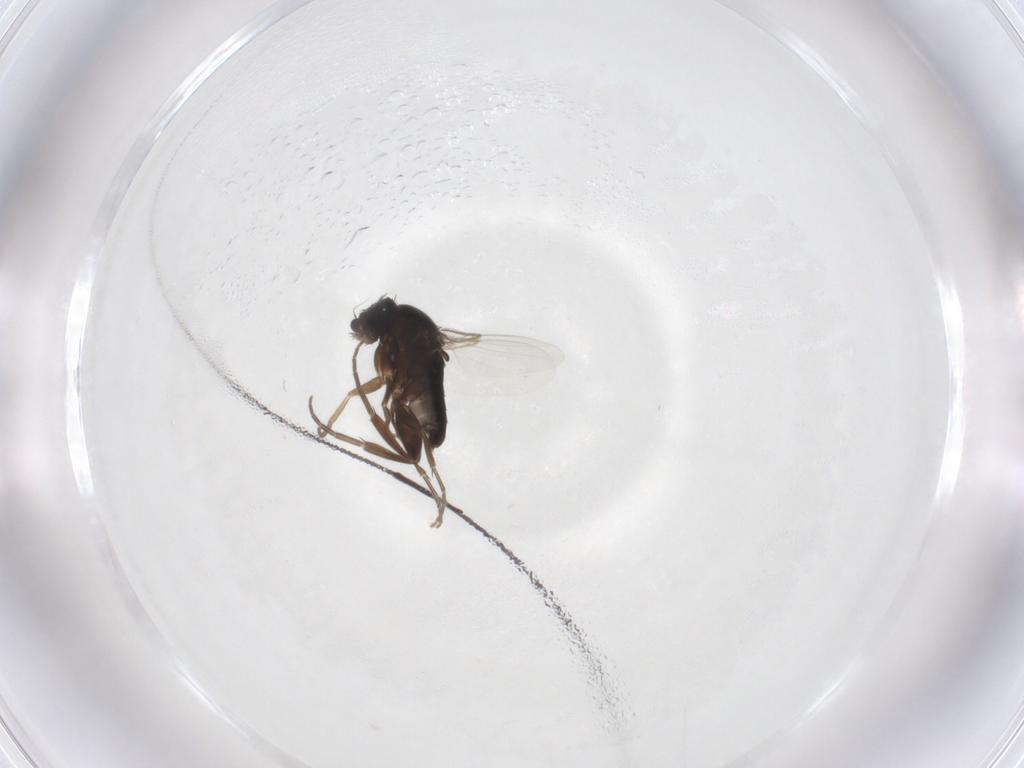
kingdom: Animalia
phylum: Arthropoda
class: Insecta
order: Diptera
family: Phoridae
